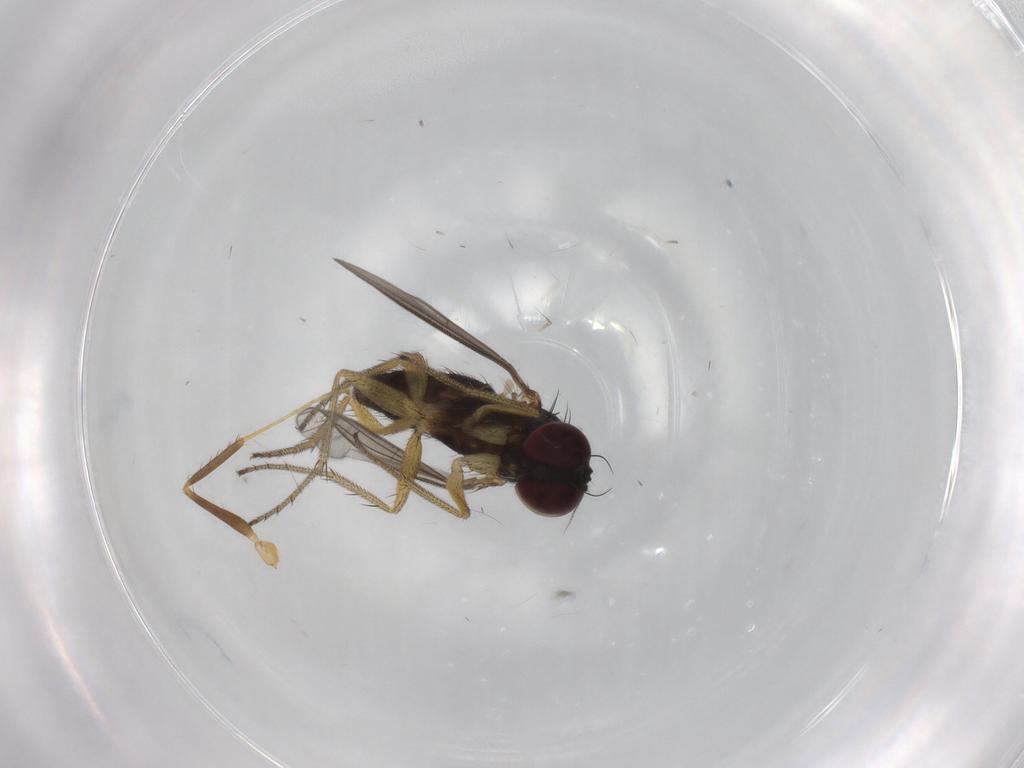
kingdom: Animalia
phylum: Arthropoda
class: Insecta
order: Diptera
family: Dolichopodidae
